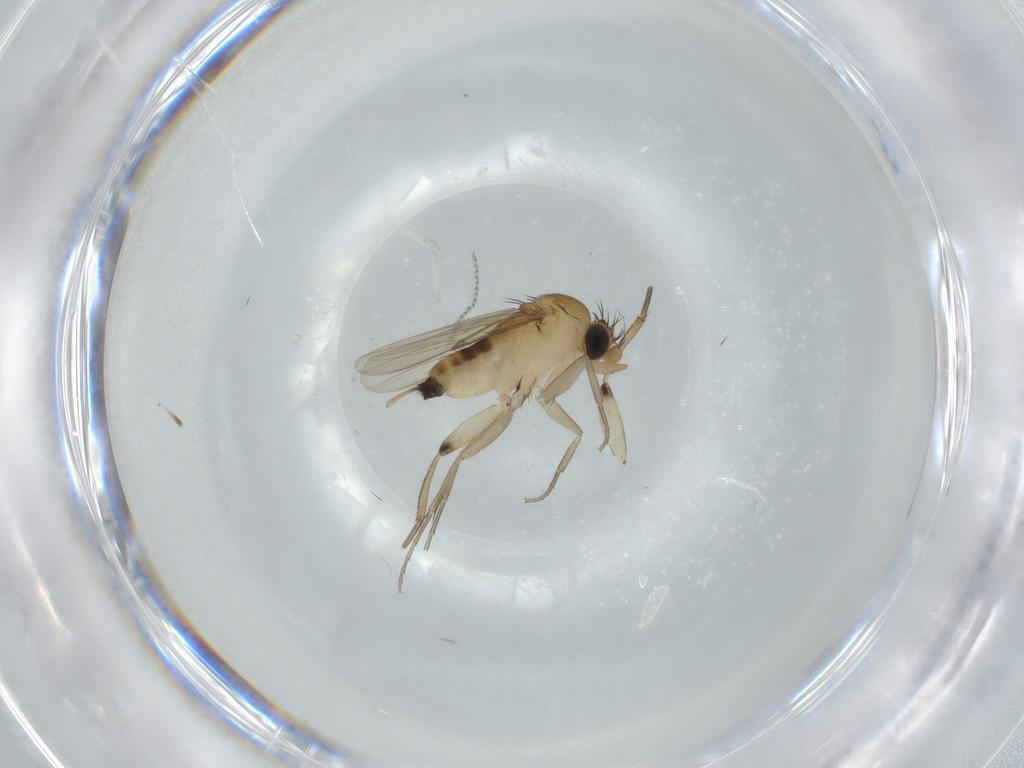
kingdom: Animalia
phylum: Arthropoda
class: Insecta
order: Diptera
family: Phoridae
